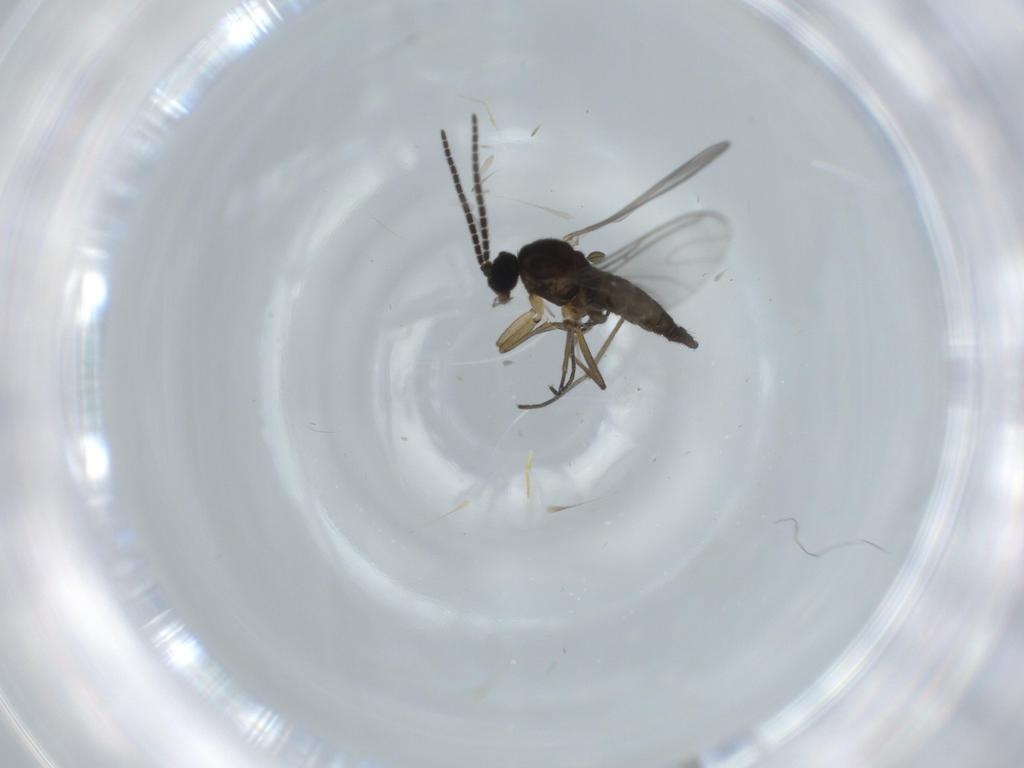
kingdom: Animalia
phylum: Arthropoda
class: Insecta
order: Diptera
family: Sciaridae
